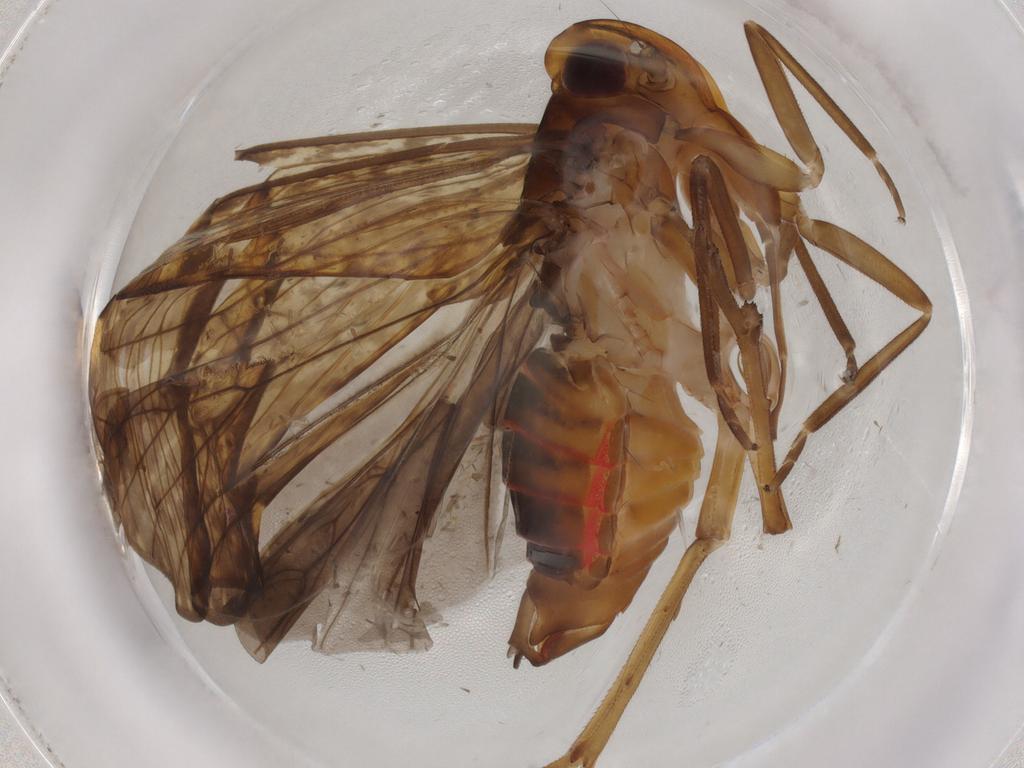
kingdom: Animalia
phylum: Arthropoda
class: Insecta
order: Hemiptera
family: Cixiidae
